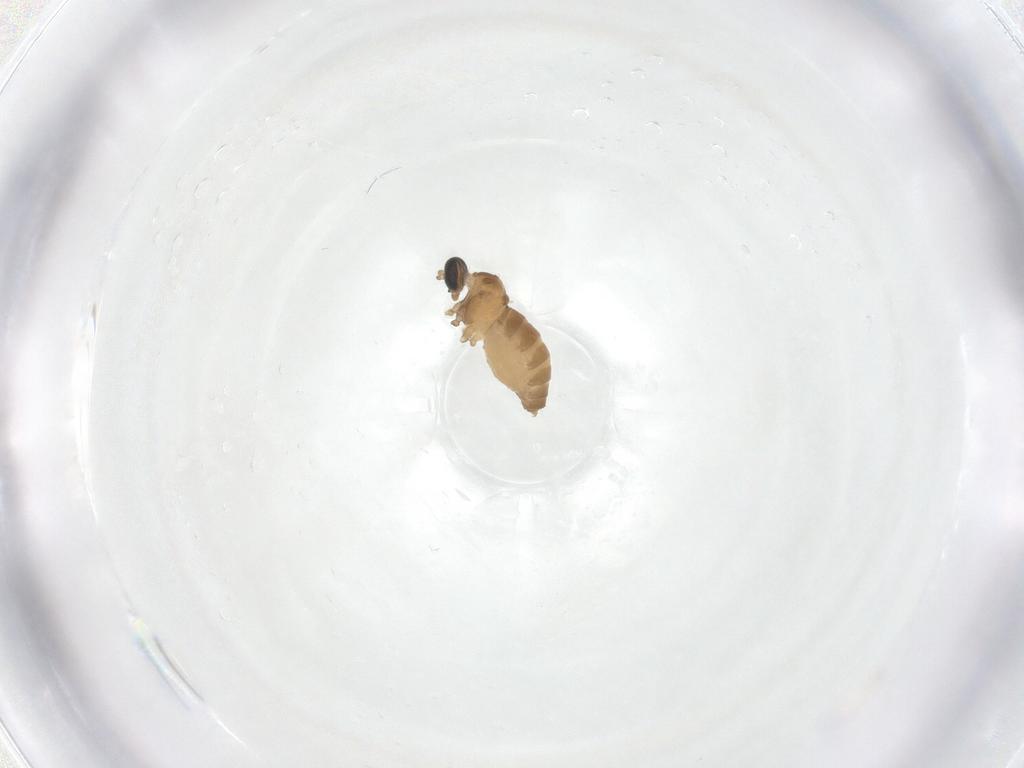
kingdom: Animalia
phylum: Arthropoda
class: Insecta
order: Diptera
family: Cecidomyiidae
